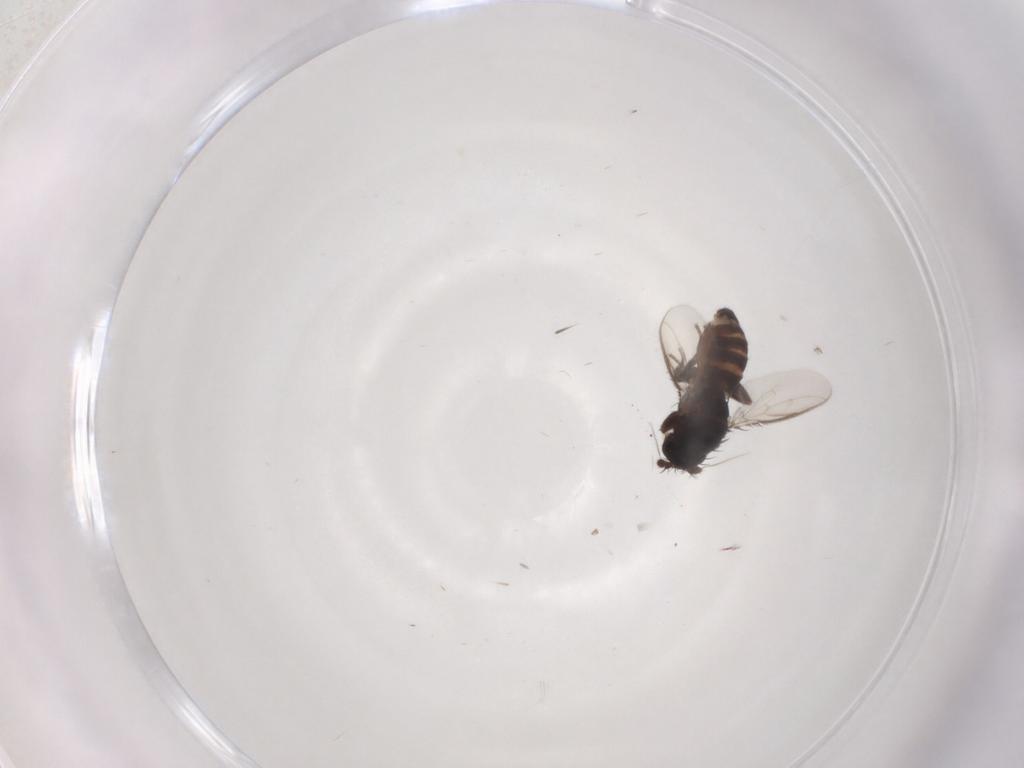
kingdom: Animalia
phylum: Arthropoda
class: Insecta
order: Diptera
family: Sphaeroceridae
